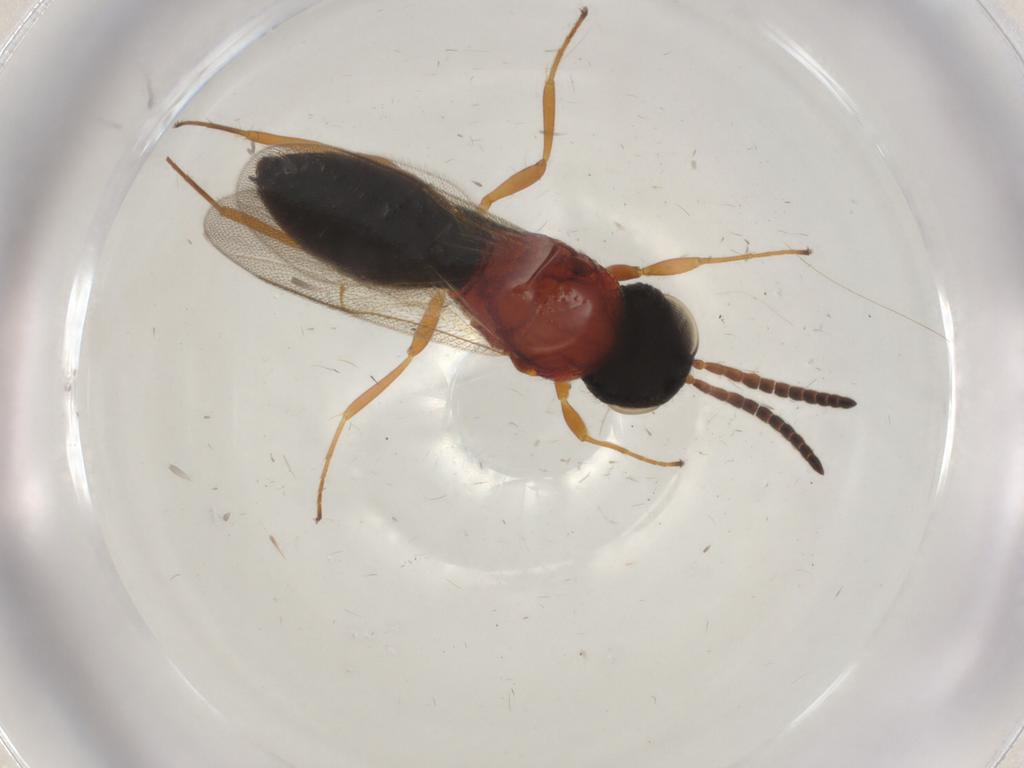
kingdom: Animalia
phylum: Arthropoda
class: Insecta
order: Hymenoptera
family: Scelionidae
